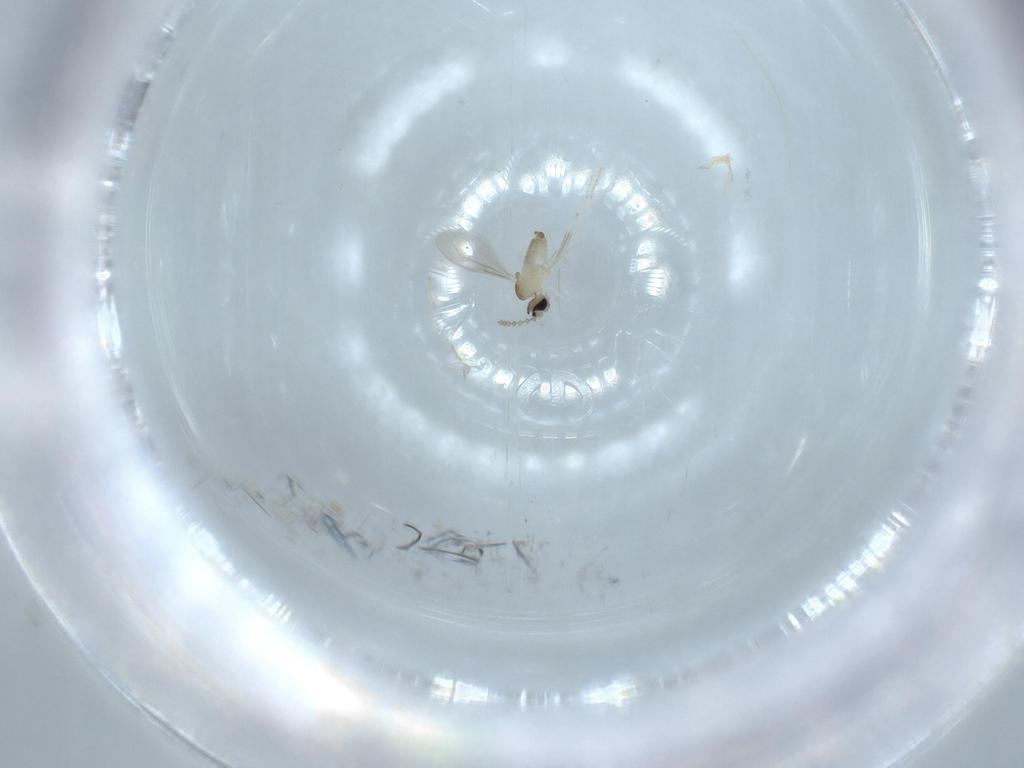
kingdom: Animalia
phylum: Arthropoda
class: Insecta
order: Diptera
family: Cecidomyiidae
